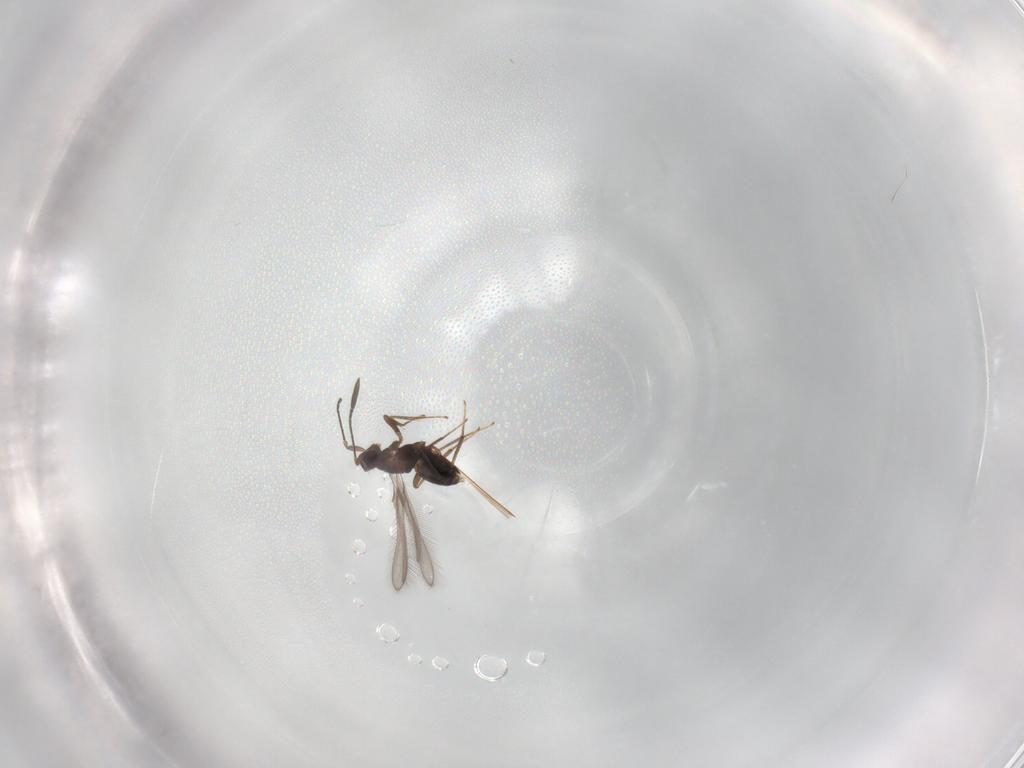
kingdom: Animalia
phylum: Arthropoda
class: Insecta
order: Hymenoptera
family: Mymaridae
